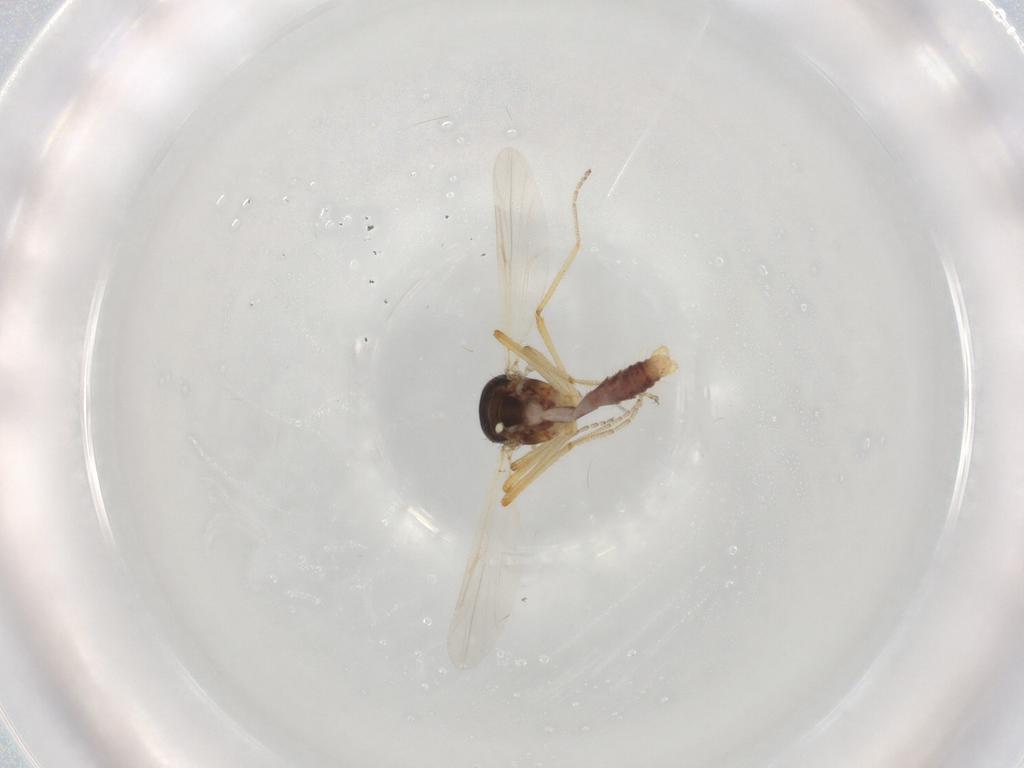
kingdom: Animalia
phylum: Arthropoda
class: Insecta
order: Diptera
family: Ceratopogonidae
